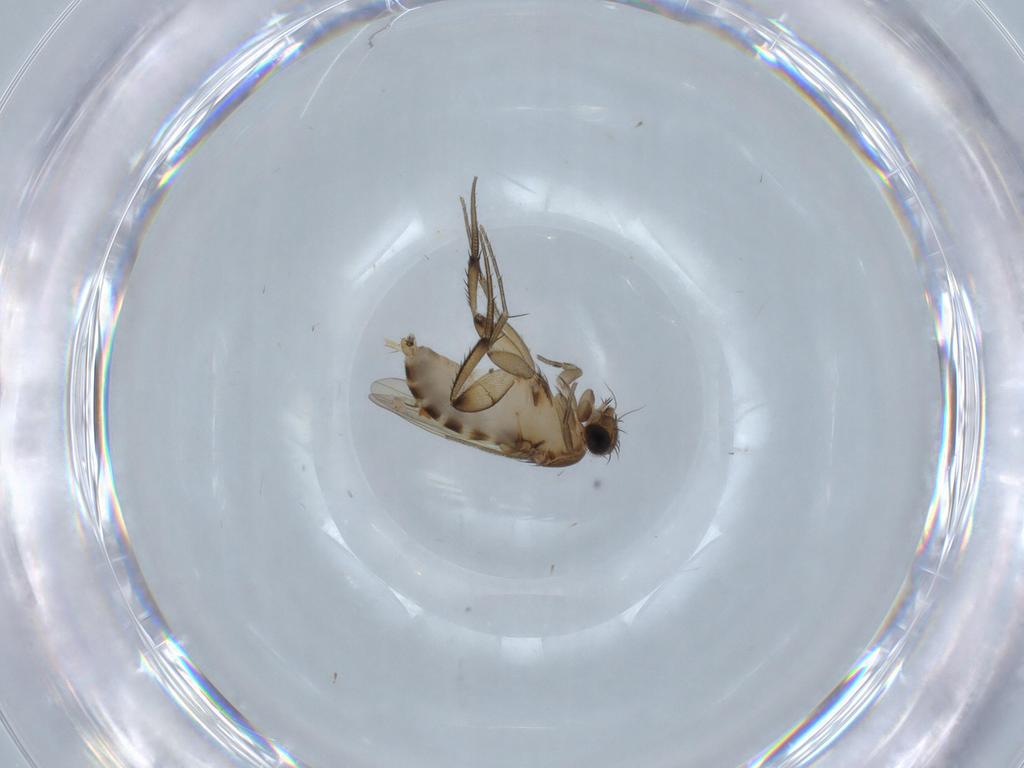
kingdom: Animalia
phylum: Arthropoda
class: Insecta
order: Diptera
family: Phoridae
